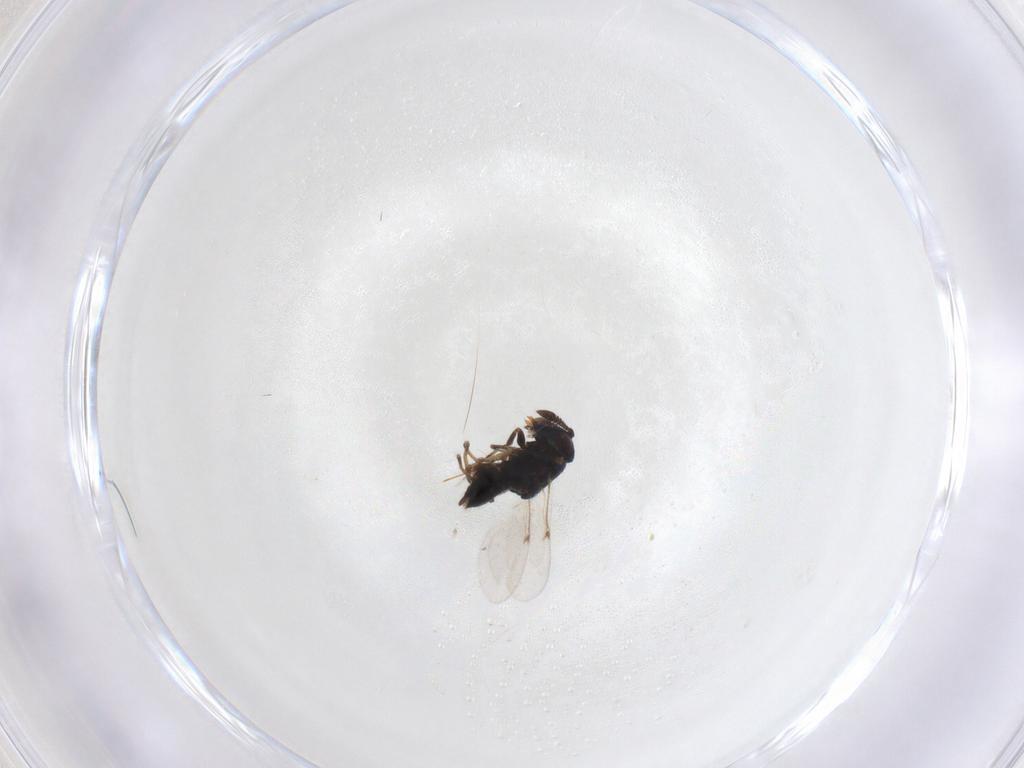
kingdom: Animalia
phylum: Arthropoda
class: Insecta
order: Hymenoptera
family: Encyrtidae
